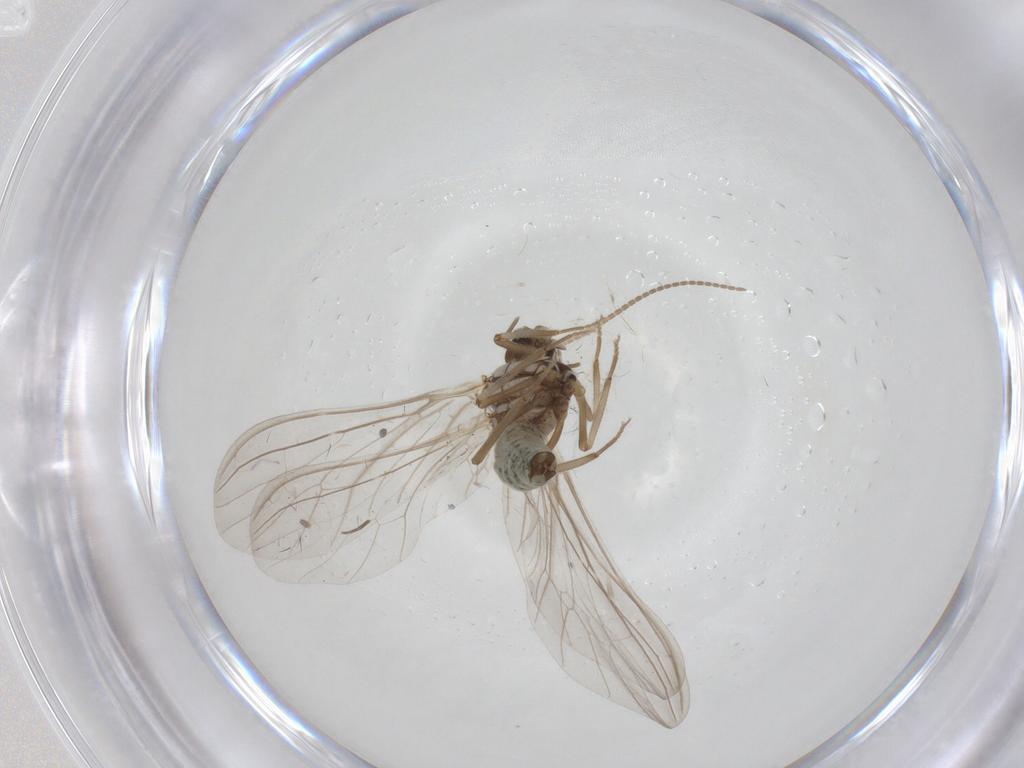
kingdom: Animalia
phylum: Arthropoda
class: Insecta
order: Neuroptera
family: Coniopterygidae
